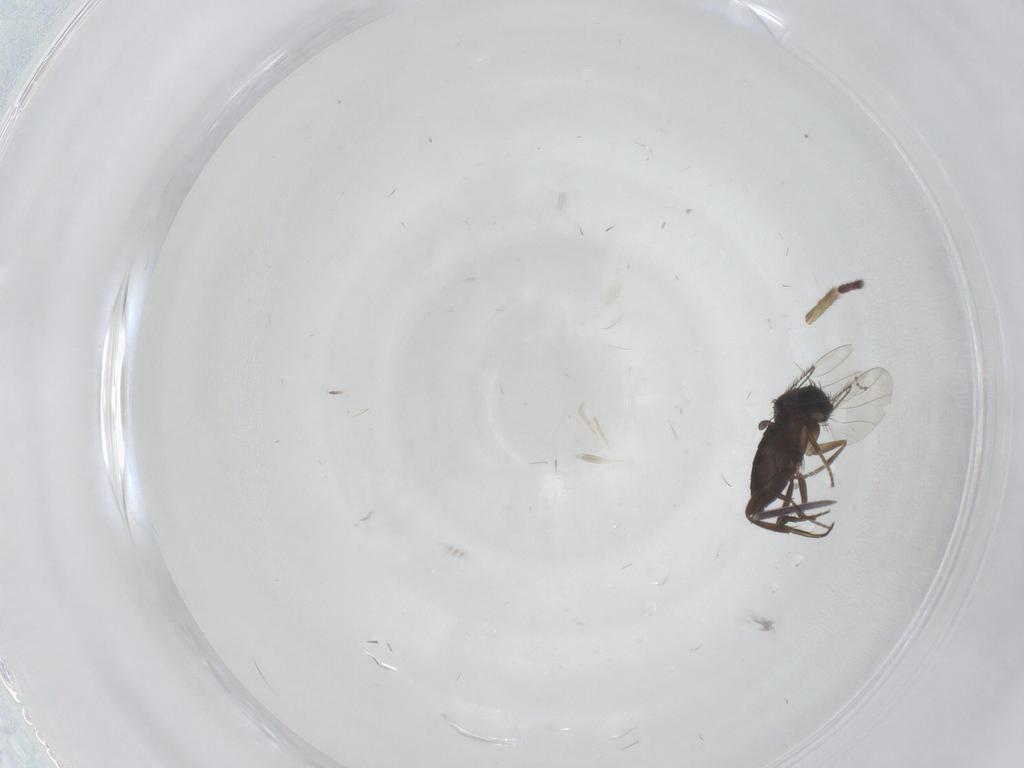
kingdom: Animalia
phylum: Arthropoda
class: Insecta
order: Diptera
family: Phoridae
